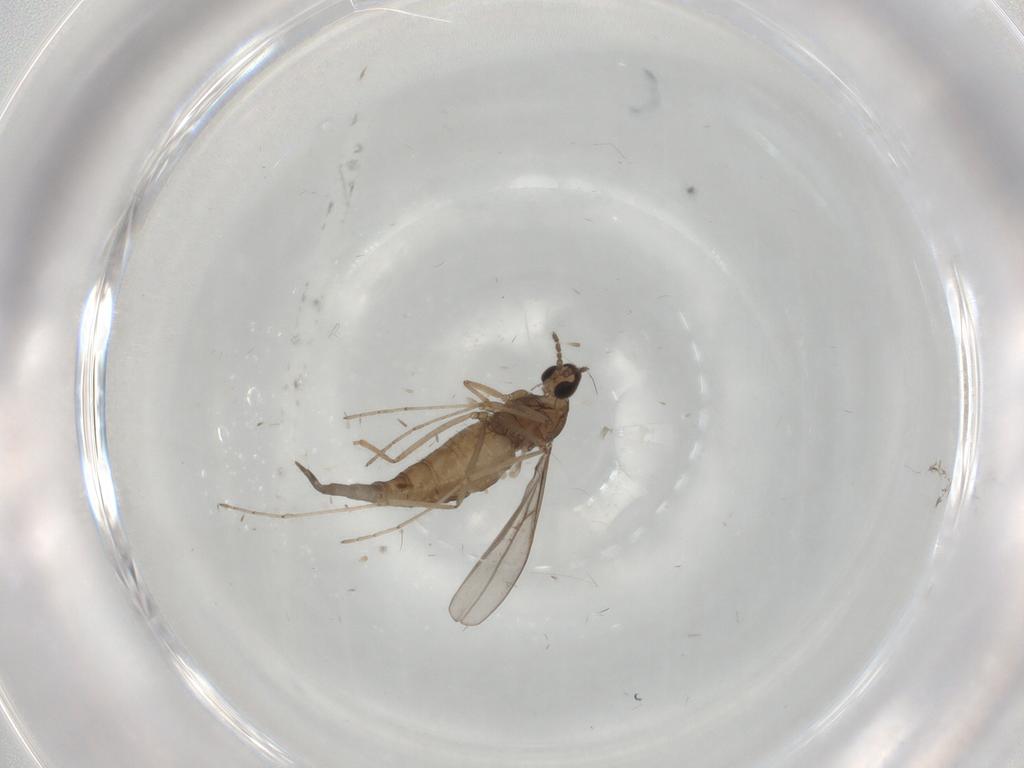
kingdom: Animalia
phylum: Arthropoda
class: Insecta
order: Diptera
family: Cecidomyiidae
